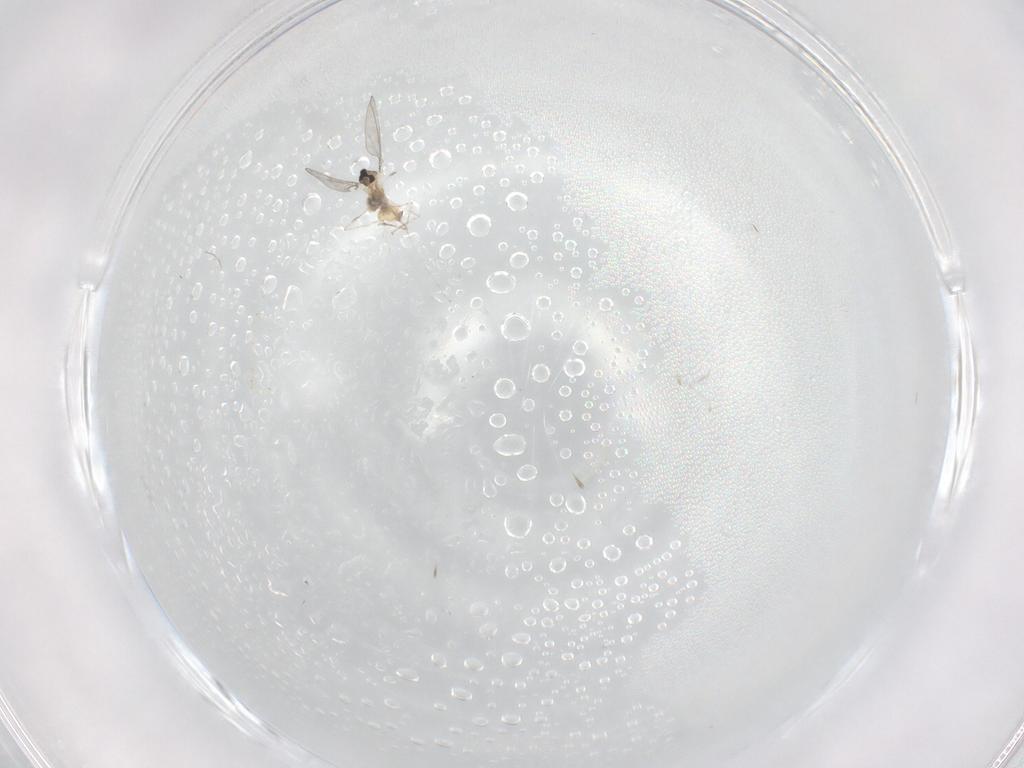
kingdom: Animalia
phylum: Arthropoda
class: Insecta
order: Diptera
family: Cecidomyiidae
